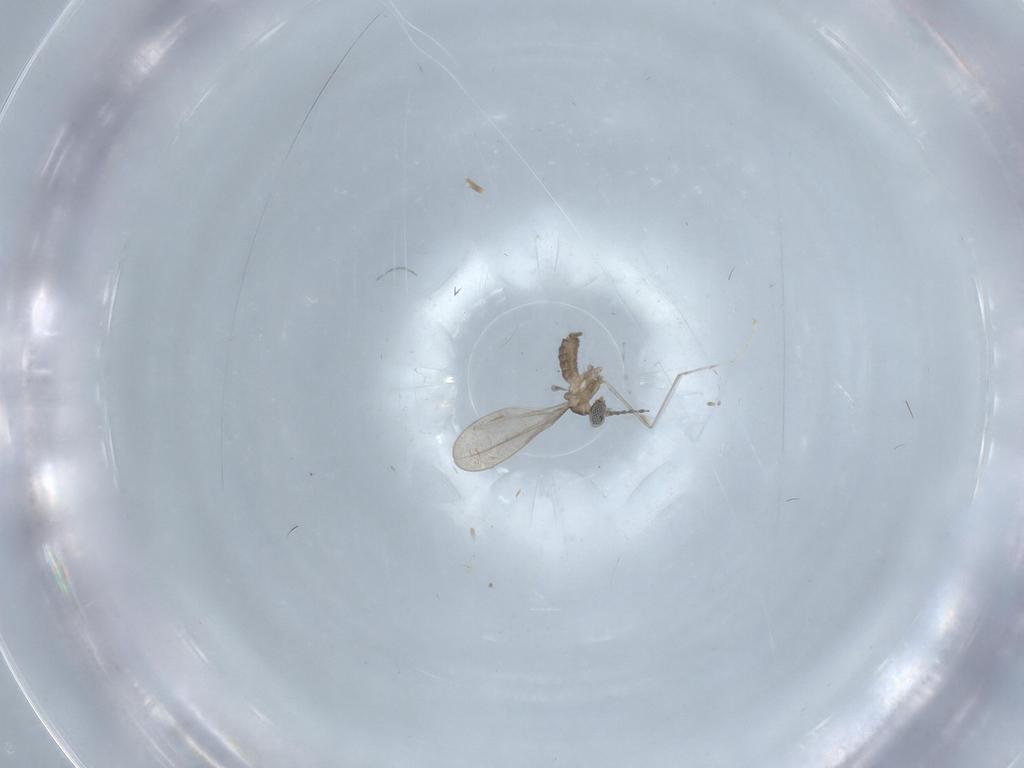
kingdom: Animalia
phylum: Arthropoda
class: Insecta
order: Diptera
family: Cecidomyiidae
